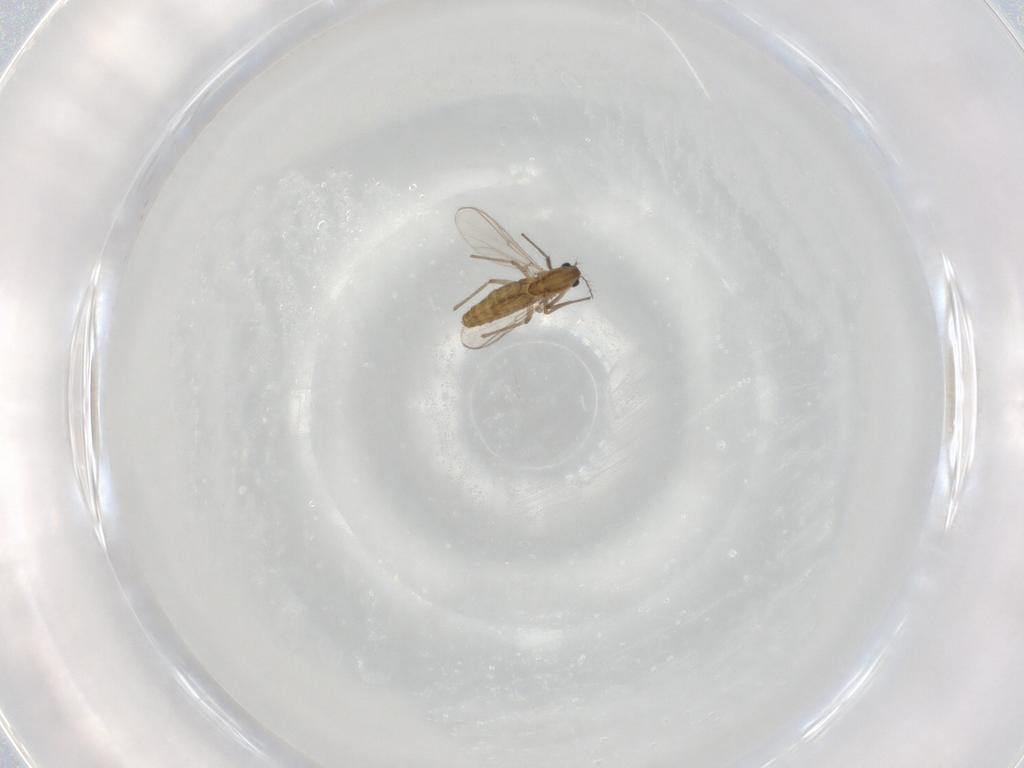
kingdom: Animalia
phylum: Arthropoda
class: Insecta
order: Diptera
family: Chironomidae
